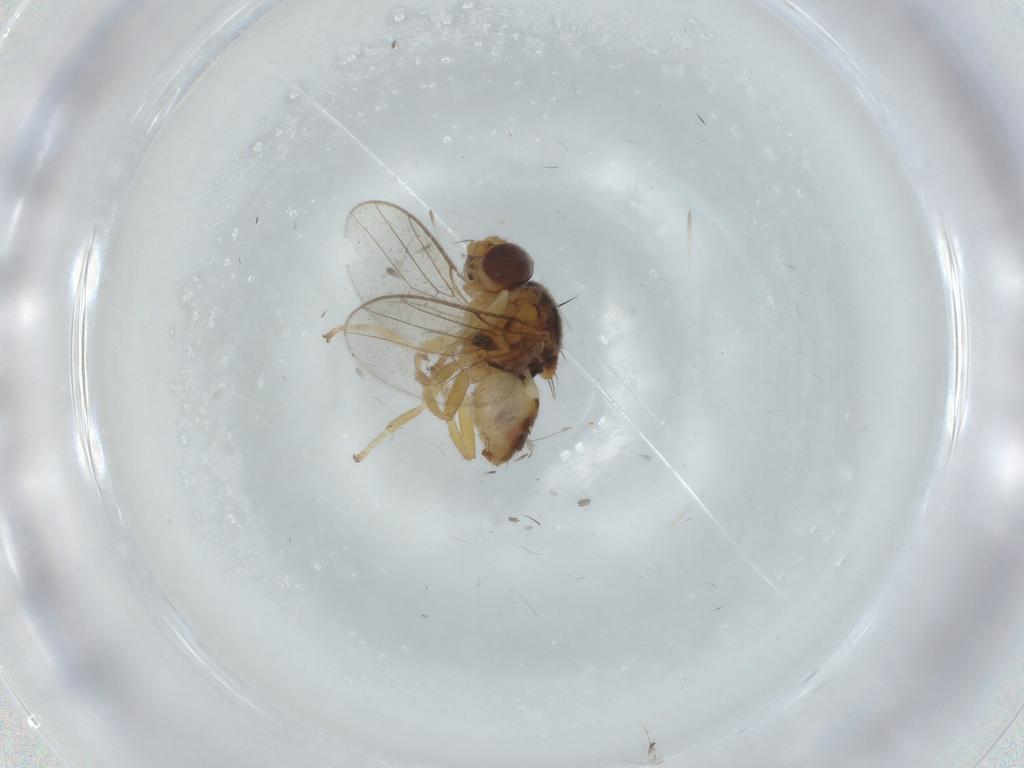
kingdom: Animalia
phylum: Arthropoda
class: Insecta
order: Diptera
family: Chloropidae
